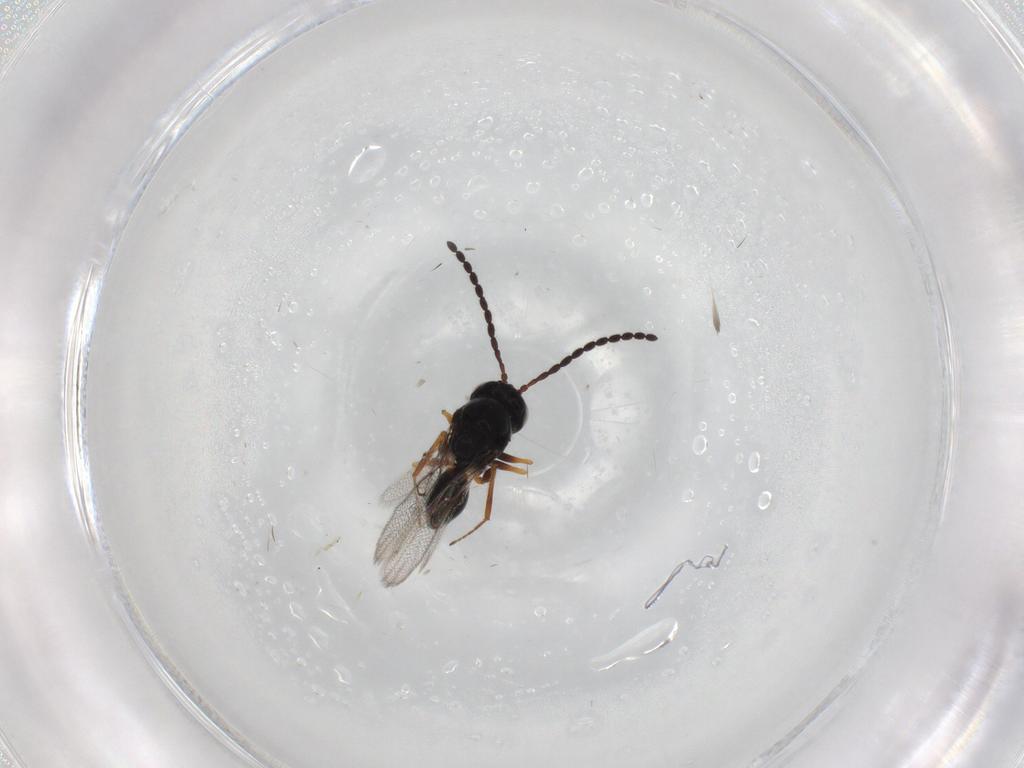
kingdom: Animalia
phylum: Arthropoda
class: Insecta
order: Hymenoptera
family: Figitidae
